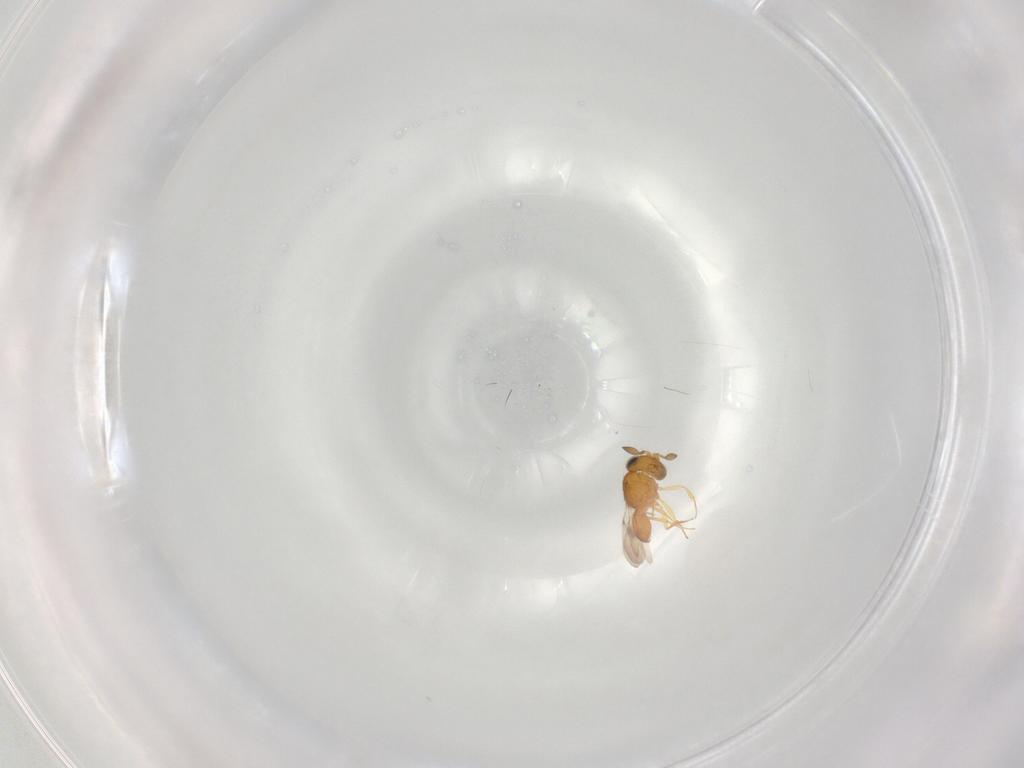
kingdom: Animalia
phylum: Arthropoda
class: Insecta
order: Hymenoptera
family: Scelionidae
